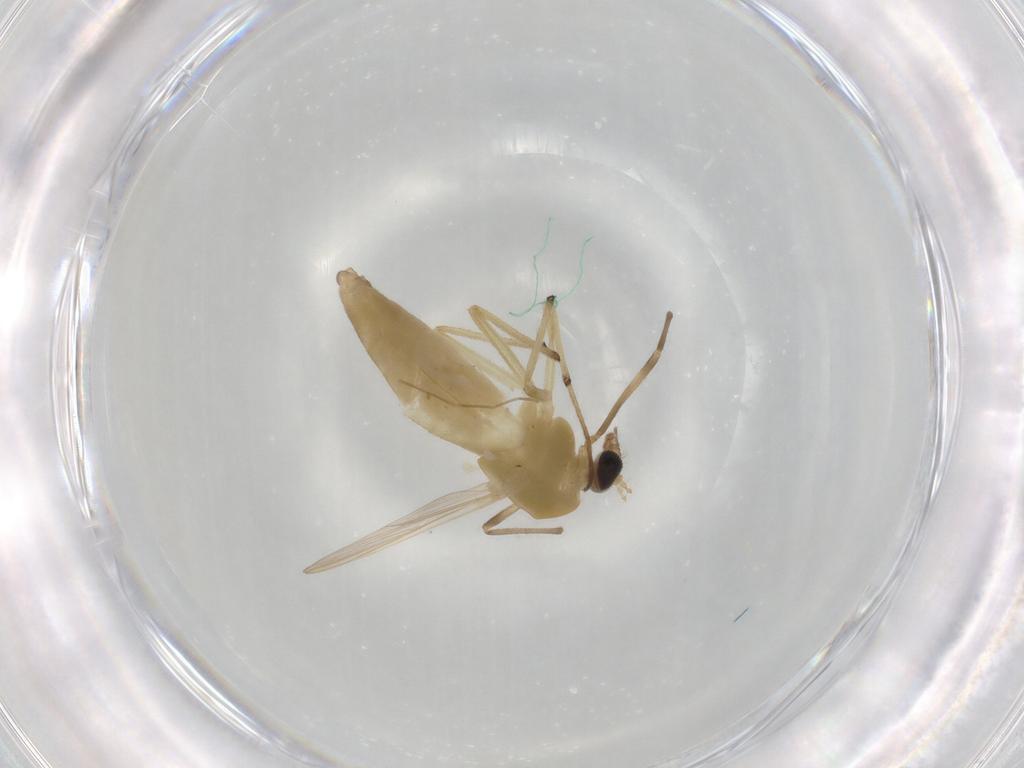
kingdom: Animalia
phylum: Arthropoda
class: Insecta
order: Diptera
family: Chironomidae
